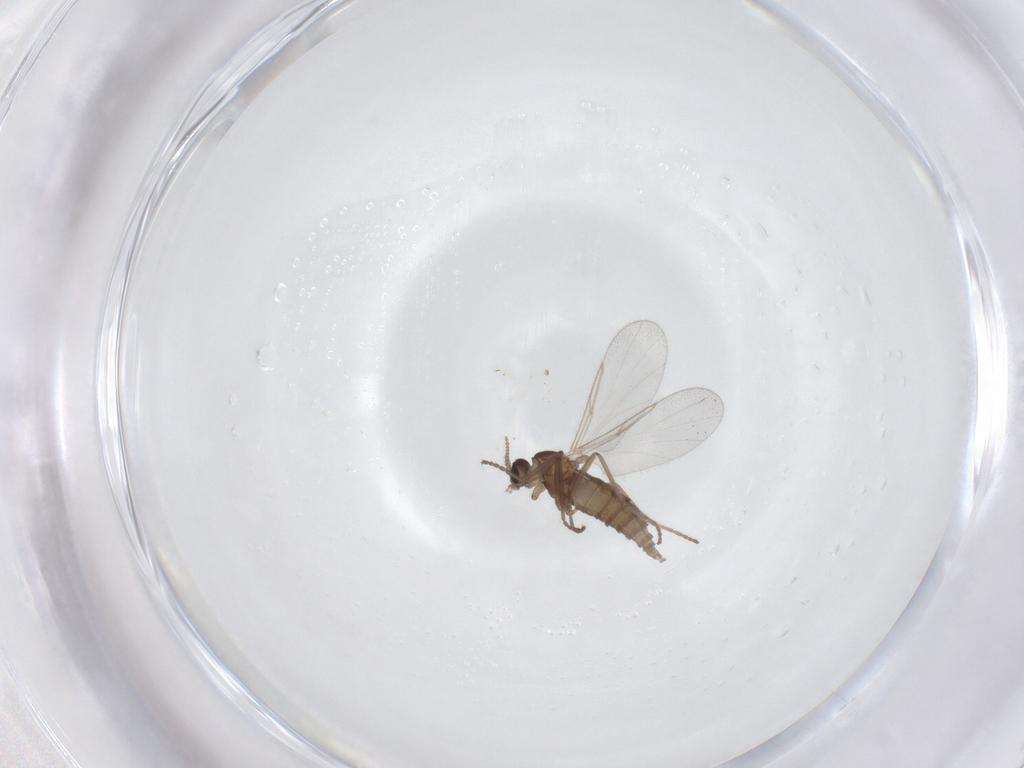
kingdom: Animalia
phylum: Arthropoda
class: Insecta
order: Diptera
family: Cecidomyiidae
